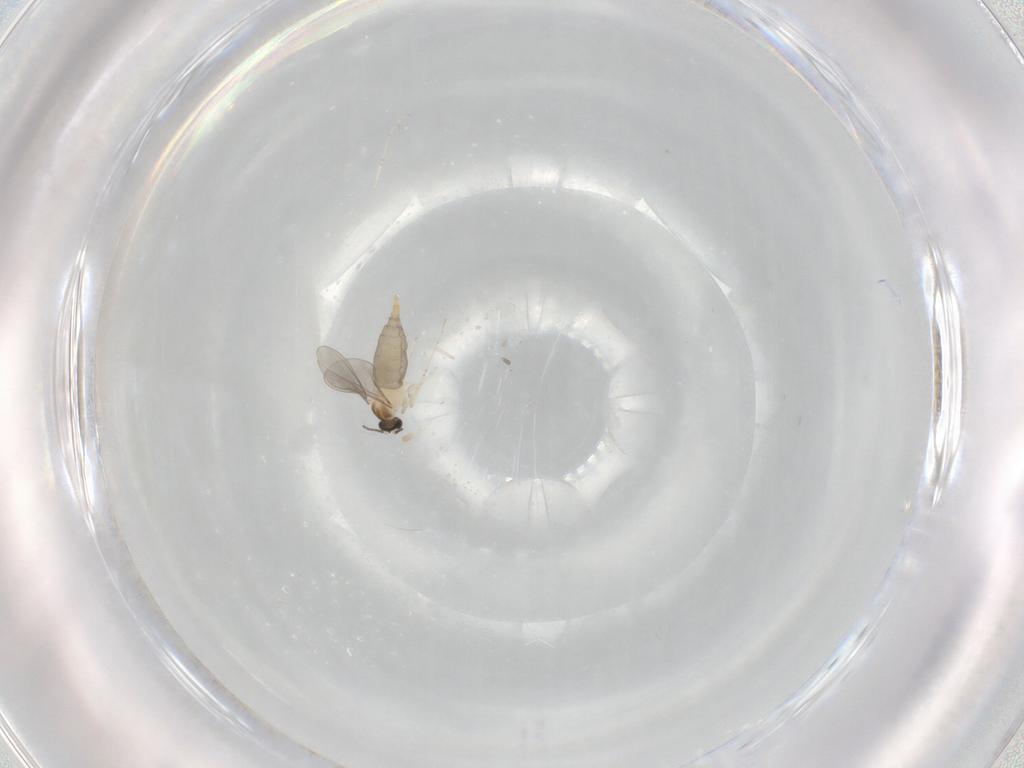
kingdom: Animalia
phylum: Arthropoda
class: Insecta
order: Diptera
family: Cecidomyiidae
